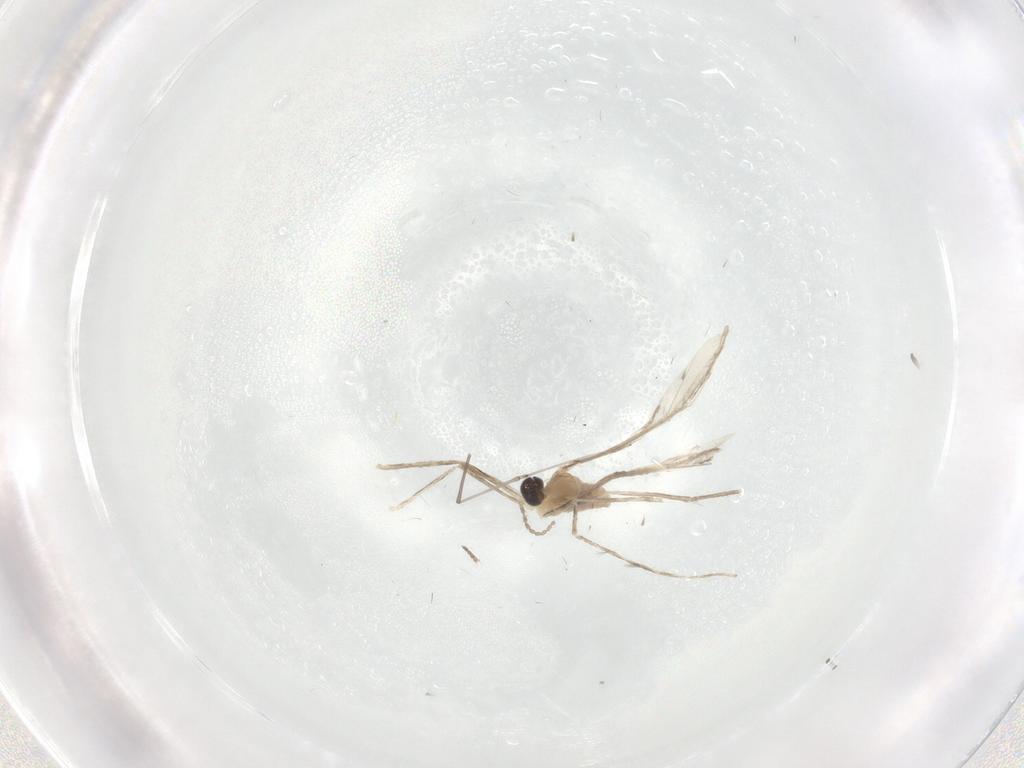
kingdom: Animalia
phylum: Arthropoda
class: Insecta
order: Diptera
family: Cecidomyiidae
